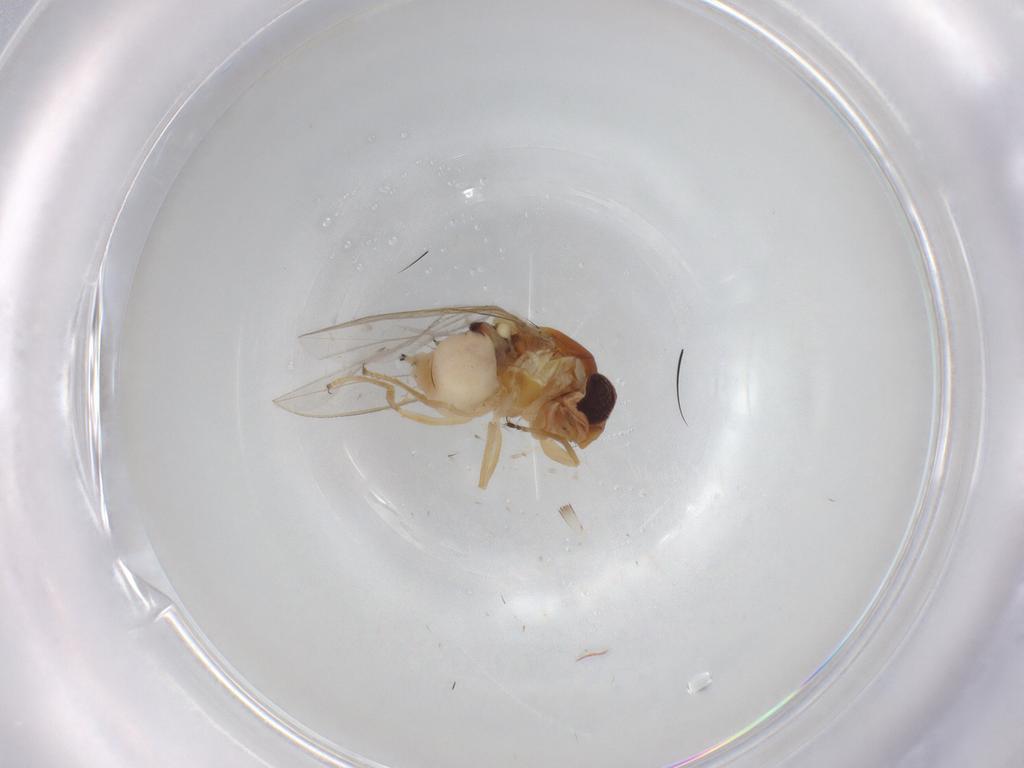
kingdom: Animalia
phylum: Arthropoda
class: Insecta
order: Diptera
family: Asteiidae
